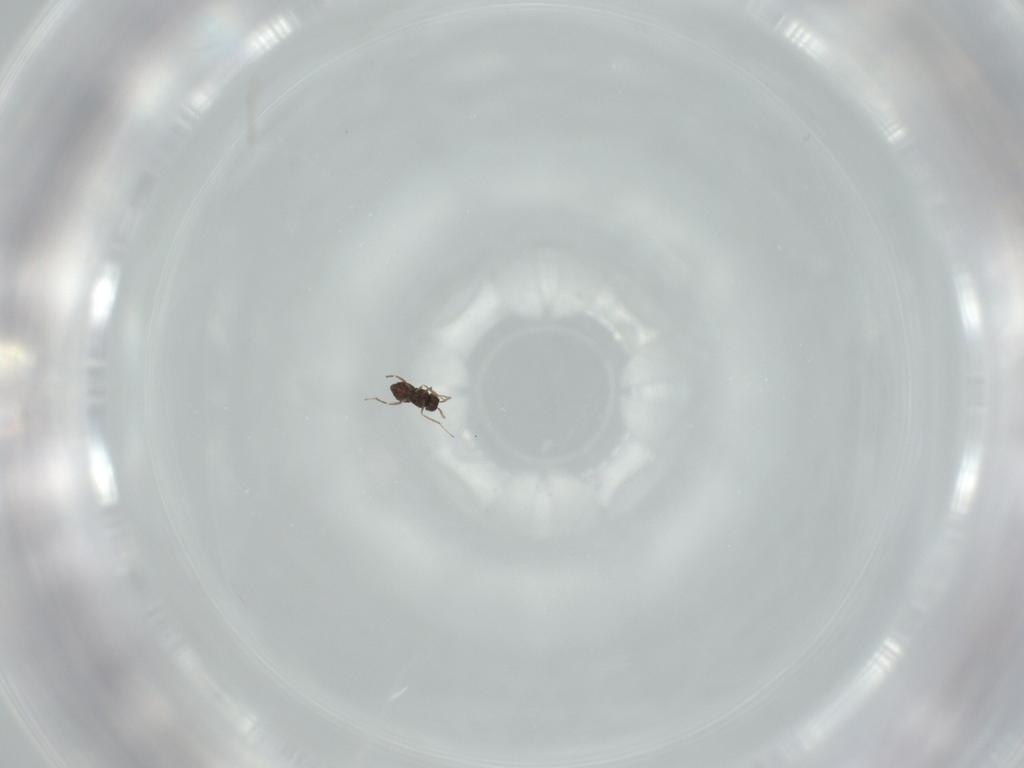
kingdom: Animalia
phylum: Arthropoda
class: Insecta
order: Hymenoptera
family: Mymaridae
